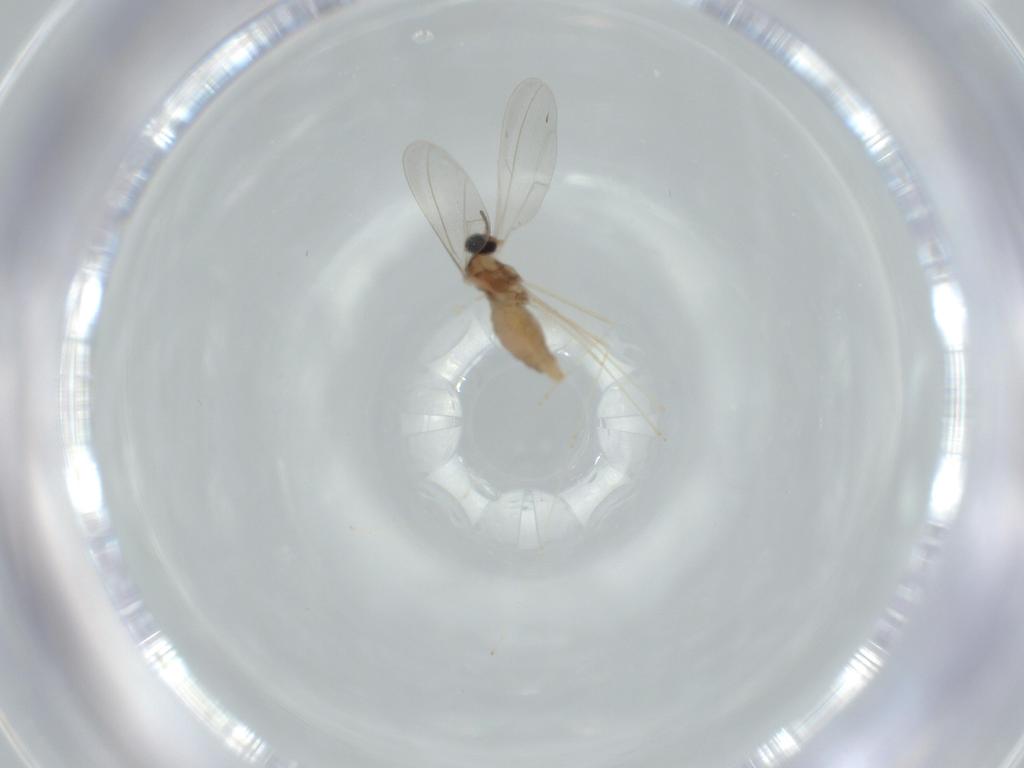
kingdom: Animalia
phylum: Arthropoda
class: Insecta
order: Diptera
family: Cecidomyiidae
